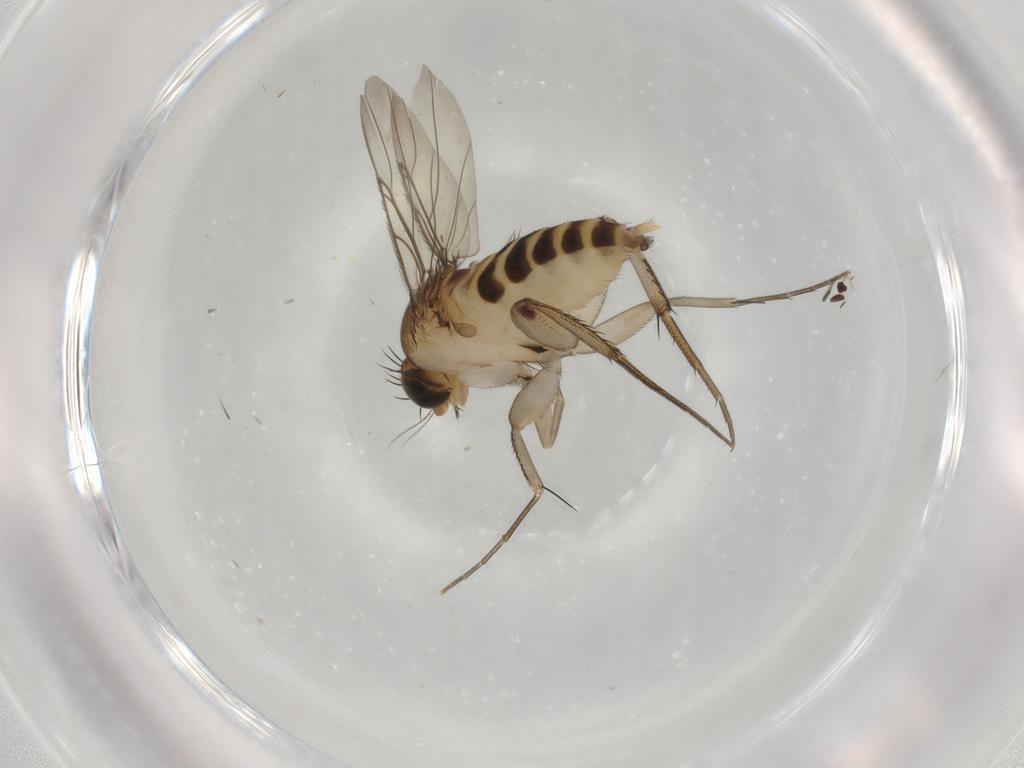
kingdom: Animalia
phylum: Arthropoda
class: Insecta
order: Diptera
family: Phoridae
